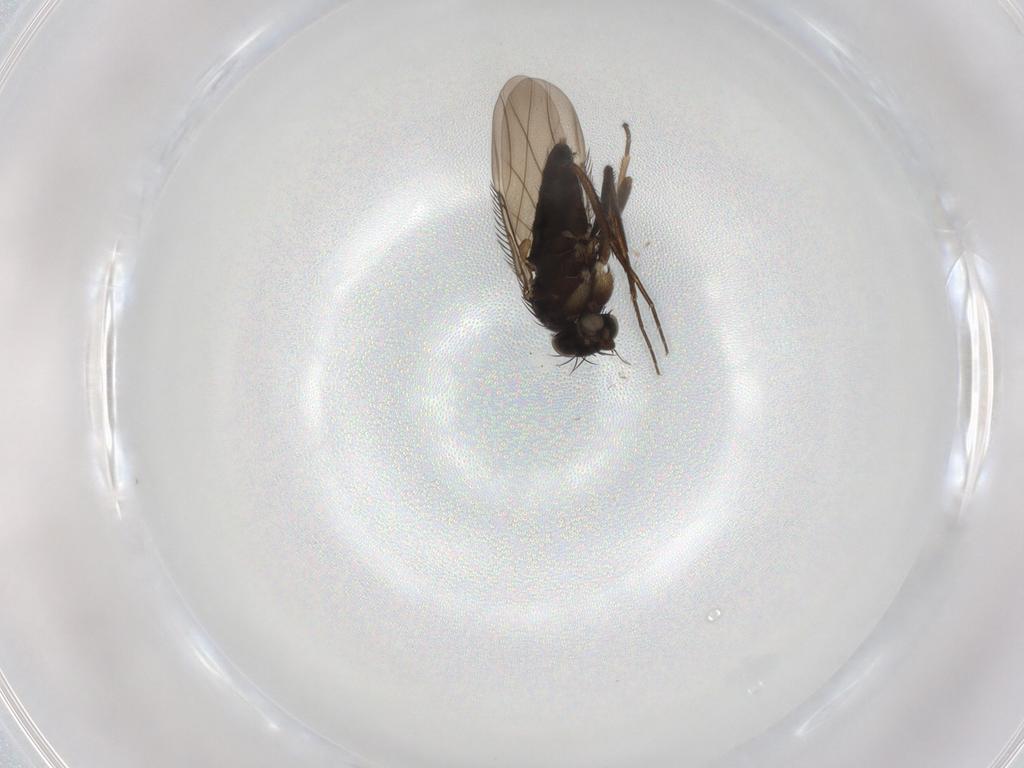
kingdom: Animalia
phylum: Arthropoda
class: Insecta
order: Diptera
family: Phoridae
